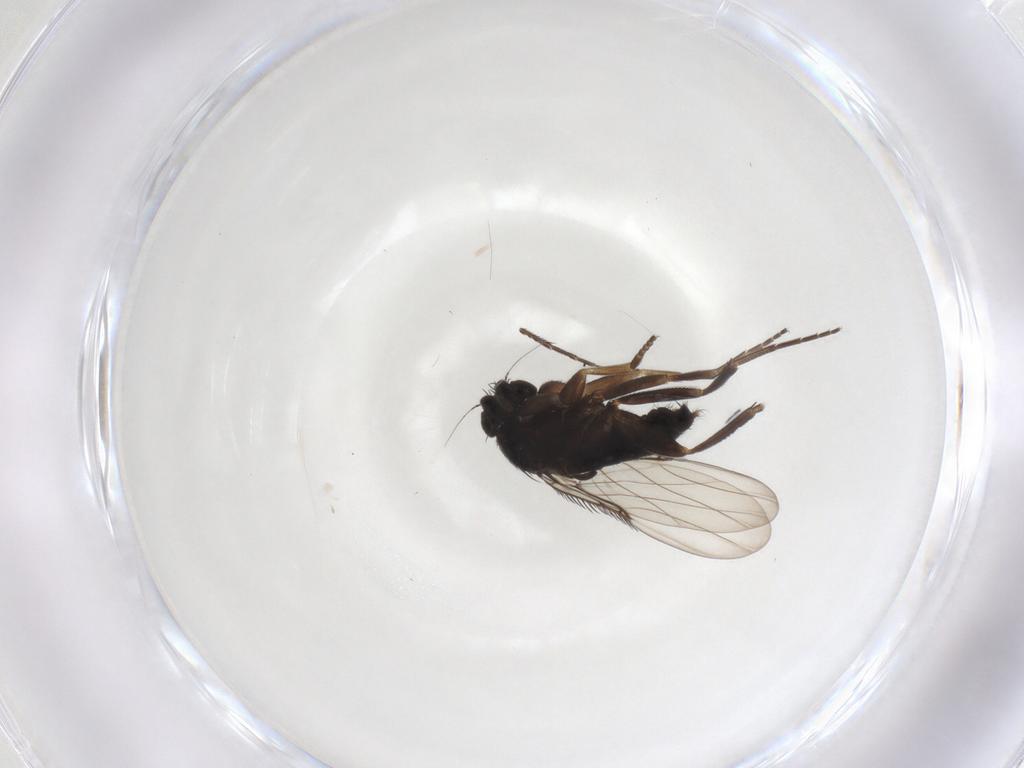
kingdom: Animalia
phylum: Arthropoda
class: Insecta
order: Diptera
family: Phoridae
